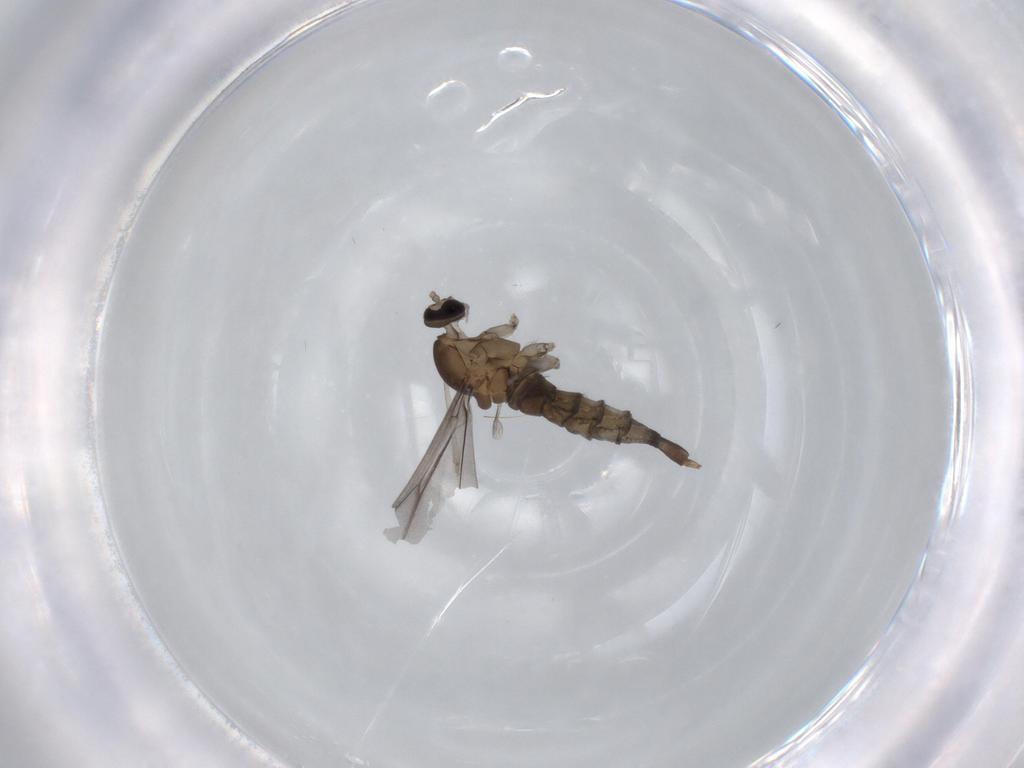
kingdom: Animalia
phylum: Arthropoda
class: Insecta
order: Diptera
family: Cecidomyiidae
